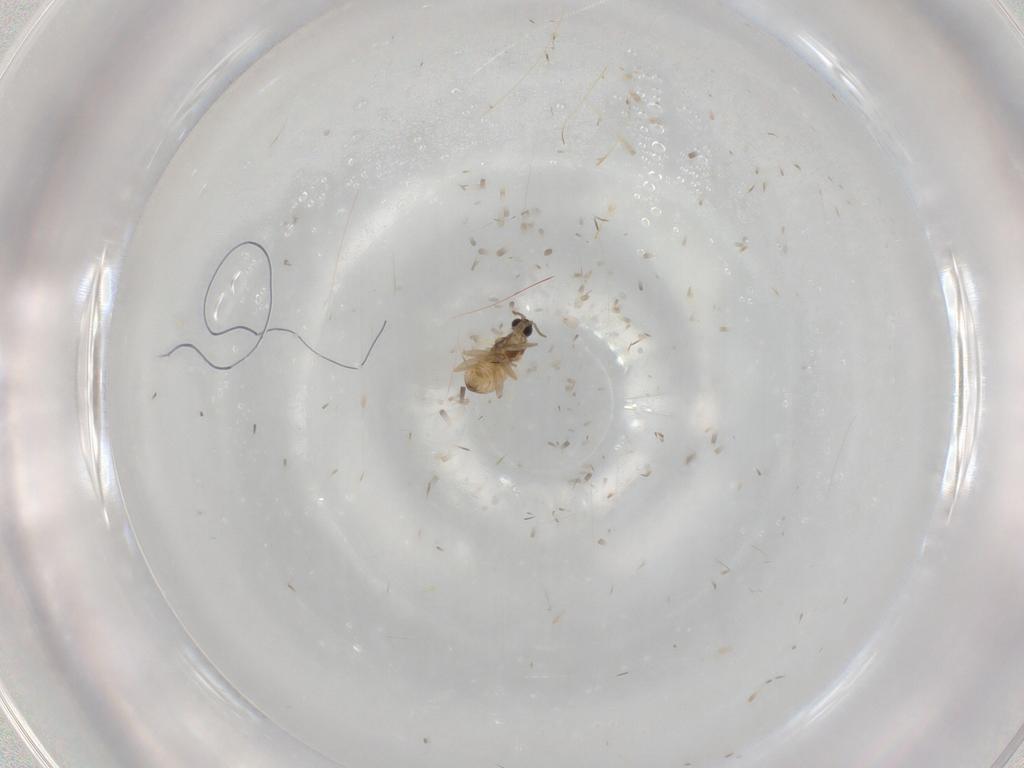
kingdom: Animalia
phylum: Arthropoda
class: Insecta
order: Diptera
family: Cecidomyiidae
